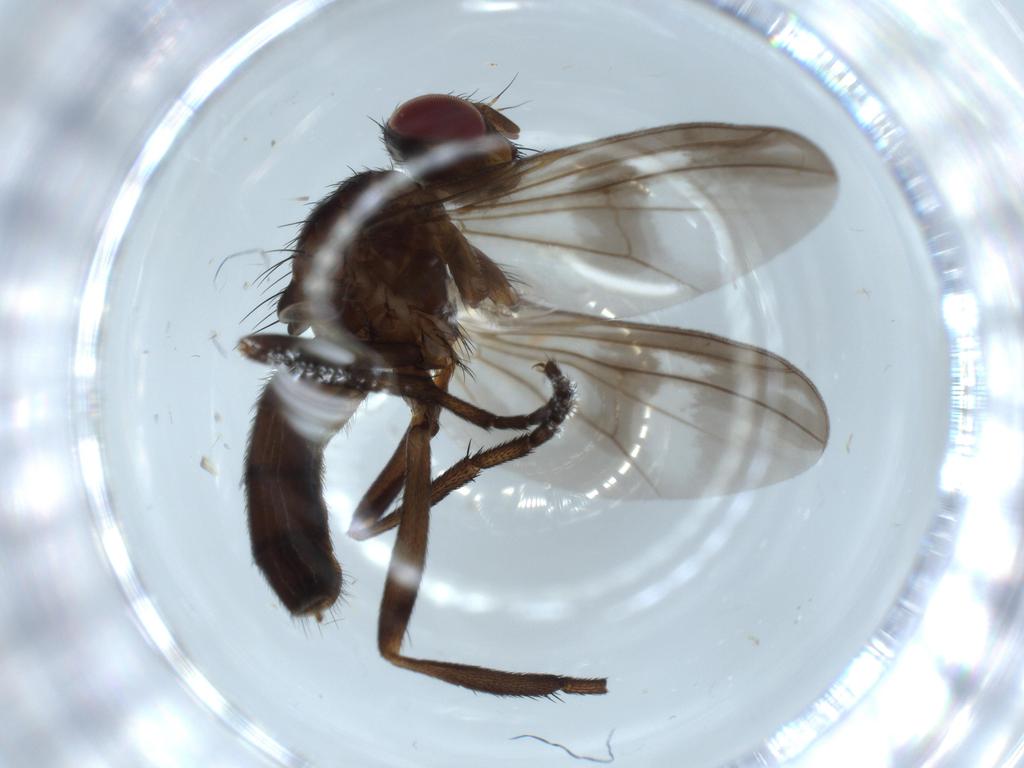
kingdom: Animalia
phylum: Arthropoda
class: Insecta
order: Diptera
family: Calliphoridae
